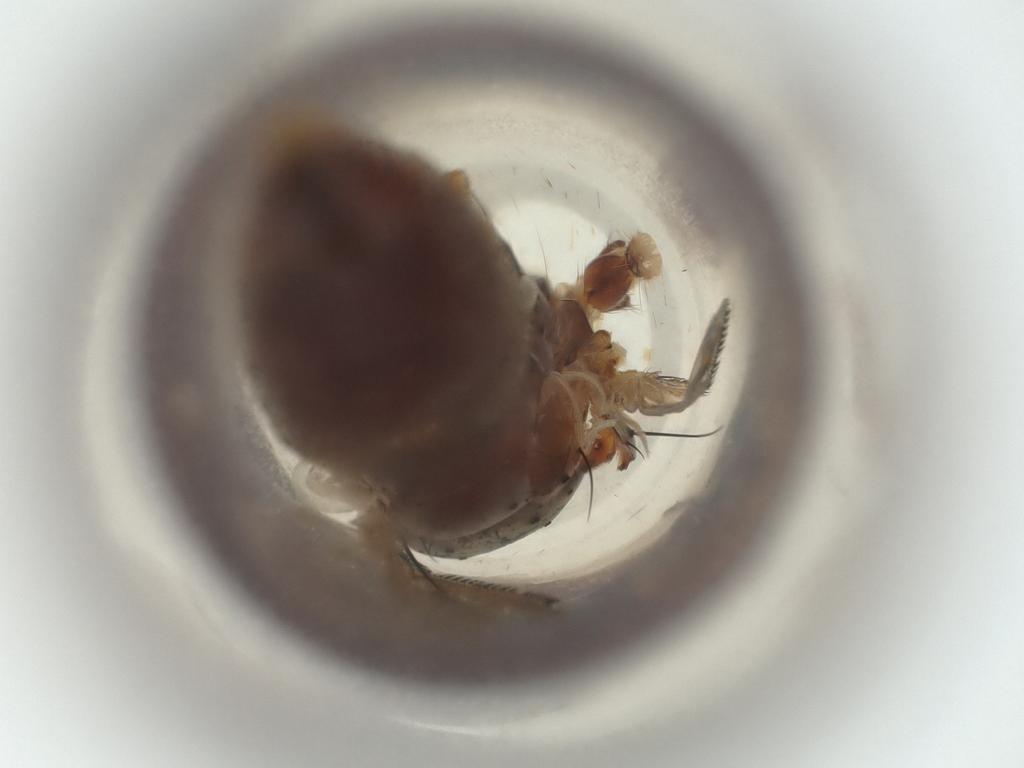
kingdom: Animalia
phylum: Arthropoda
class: Insecta
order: Diptera
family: Muscidae
